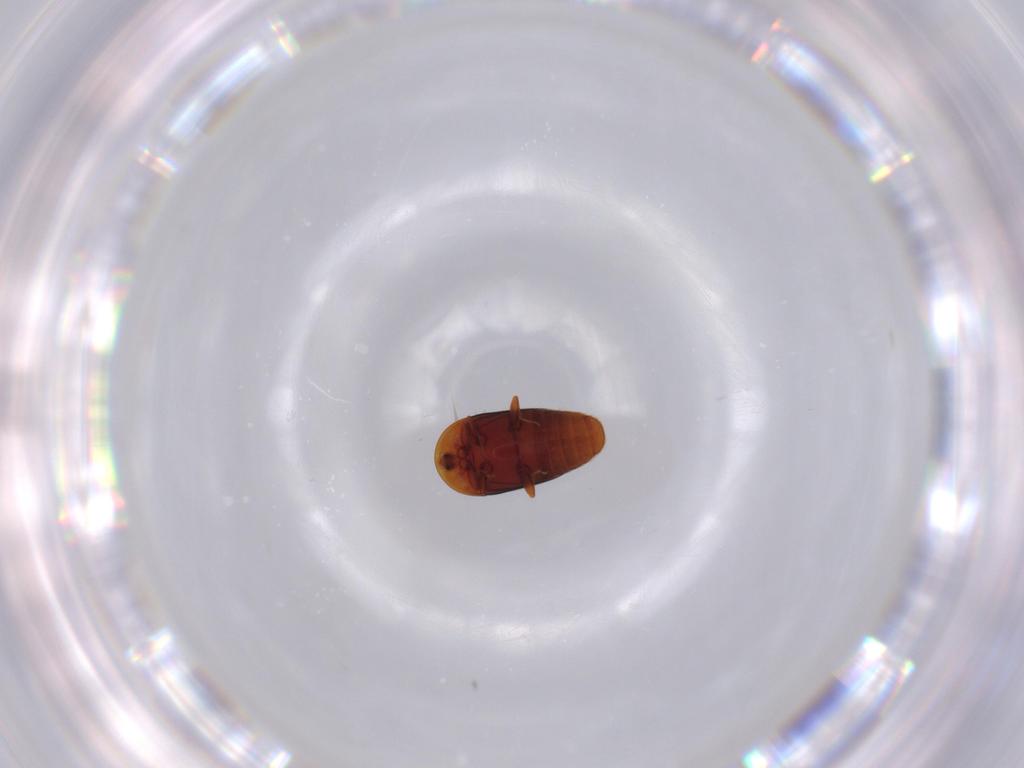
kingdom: Animalia
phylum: Arthropoda
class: Insecta
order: Coleoptera
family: Corylophidae
